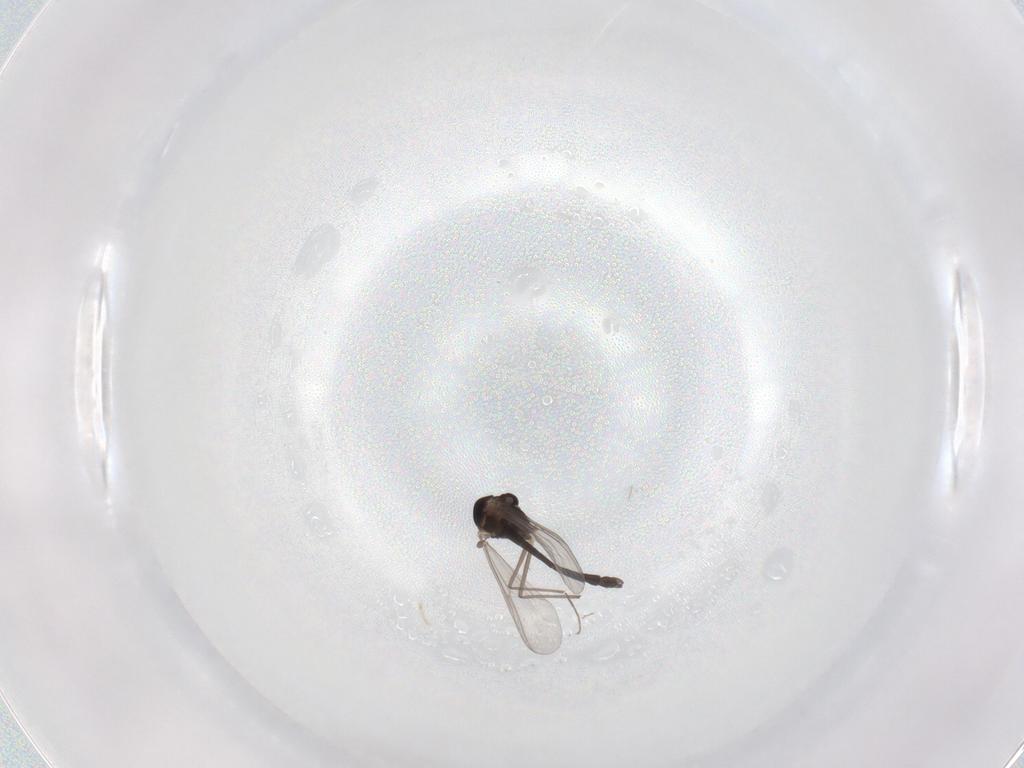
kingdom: Animalia
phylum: Arthropoda
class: Insecta
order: Diptera
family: Chironomidae
